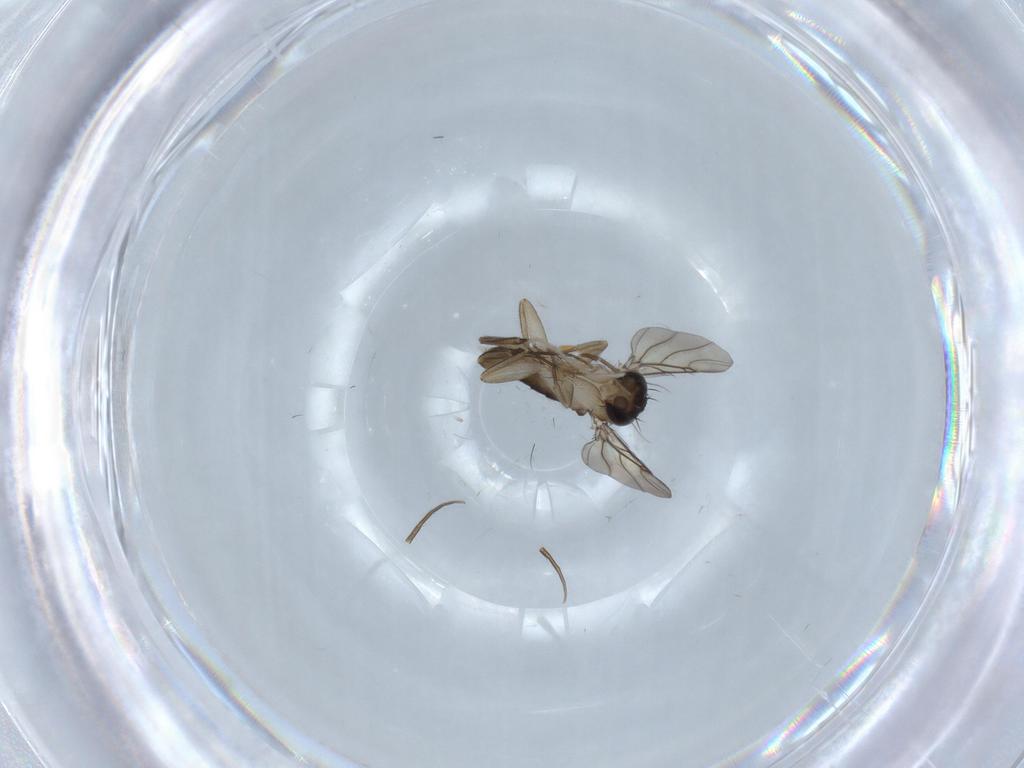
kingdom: Animalia
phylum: Arthropoda
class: Insecta
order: Diptera
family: Phoridae
